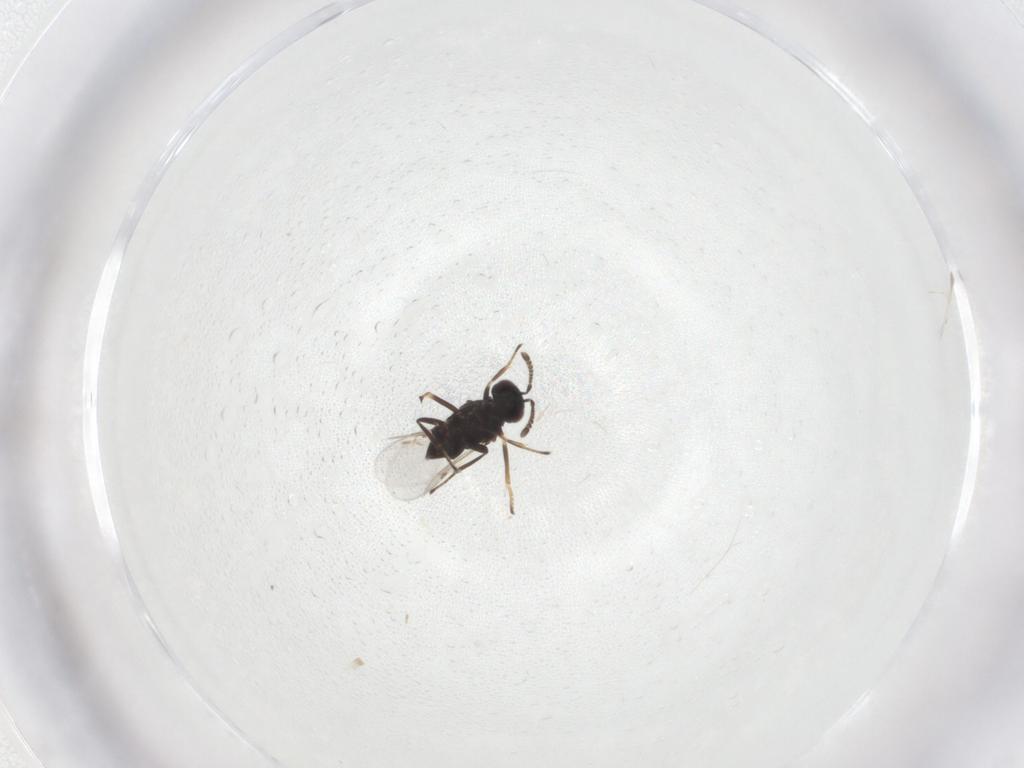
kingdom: Animalia
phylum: Arthropoda
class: Insecta
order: Hymenoptera
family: Encyrtidae
